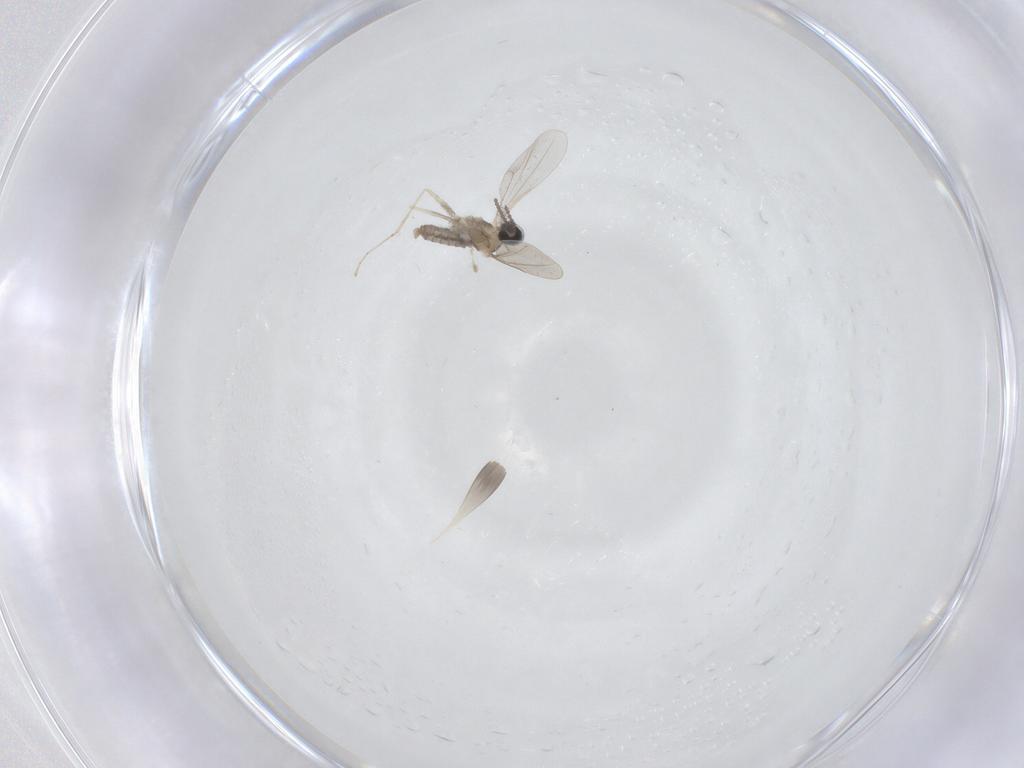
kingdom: Animalia
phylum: Arthropoda
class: Insecta
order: Diptera
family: Cecidomyiidae
